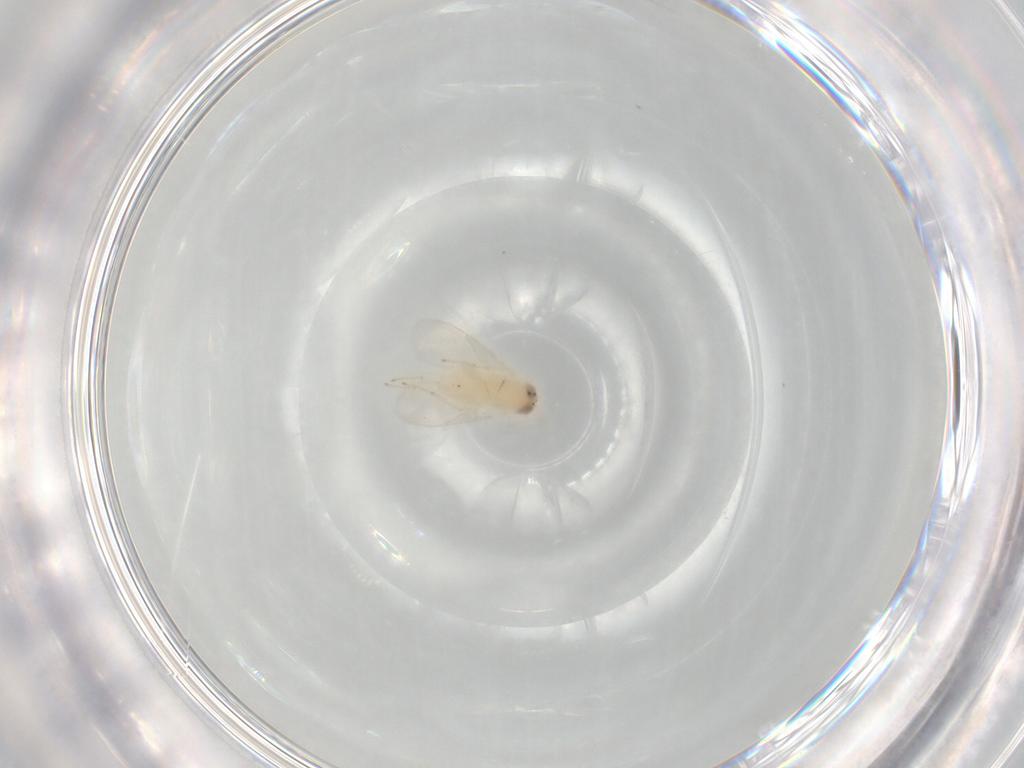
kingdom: Animalia
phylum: Arthropoda
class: Insecta
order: Hymenoptera
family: Aphelinidae
